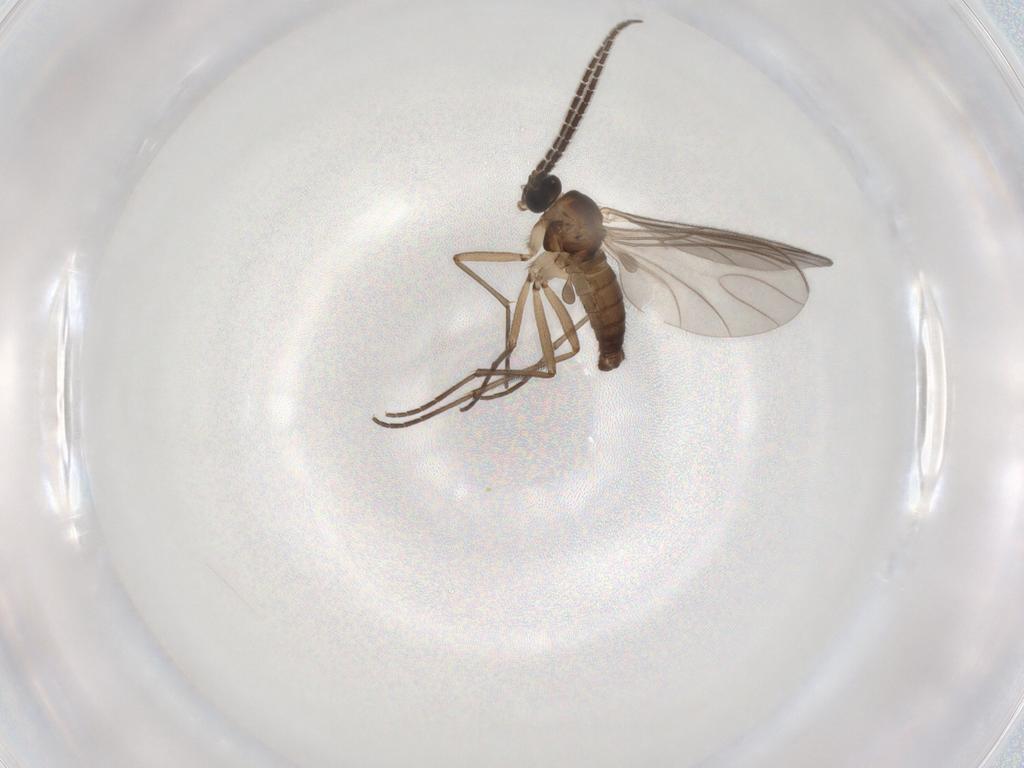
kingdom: Animalia
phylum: Arthropoda
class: Insecta
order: Diptera
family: Sciaridae
